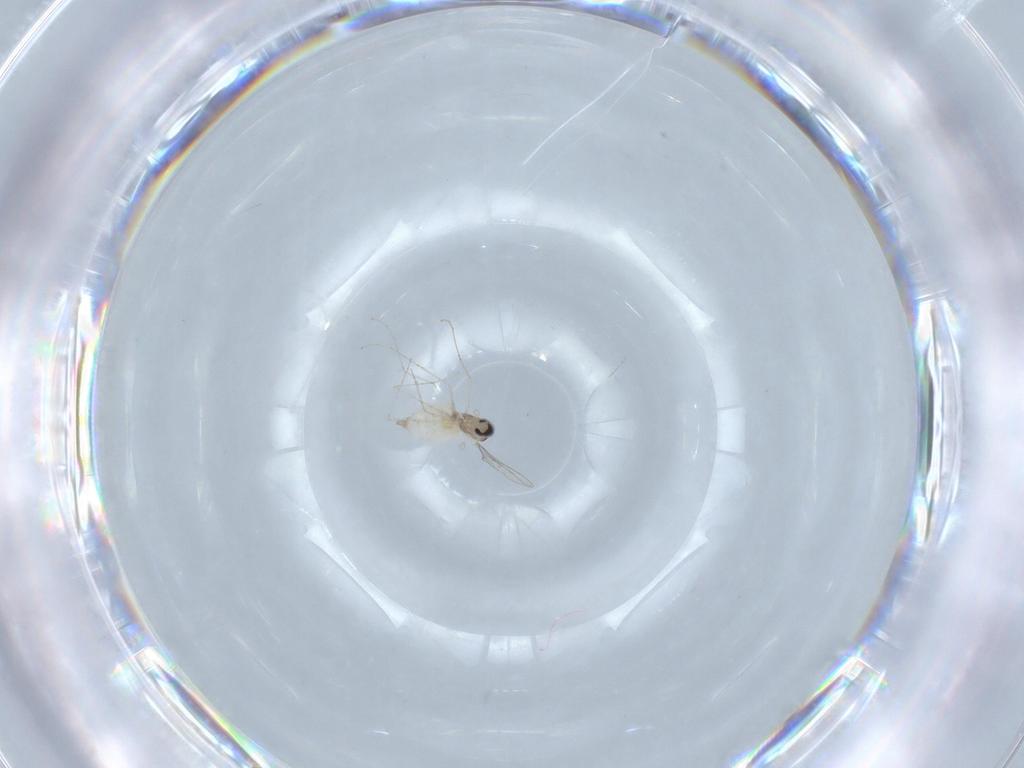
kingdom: Animalia
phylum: Arthropoda
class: Insecta
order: Diptera
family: Cecidomyiidae
